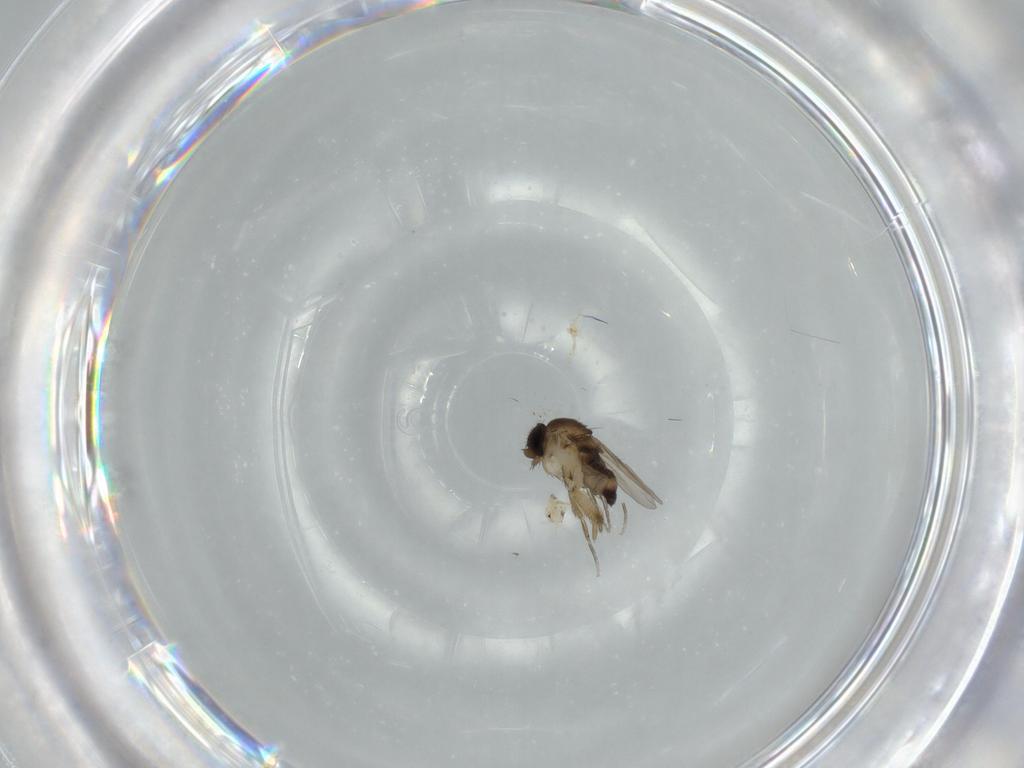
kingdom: Animalia
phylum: Arthropoda
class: Insecta
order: Diptera
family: Phoridae
